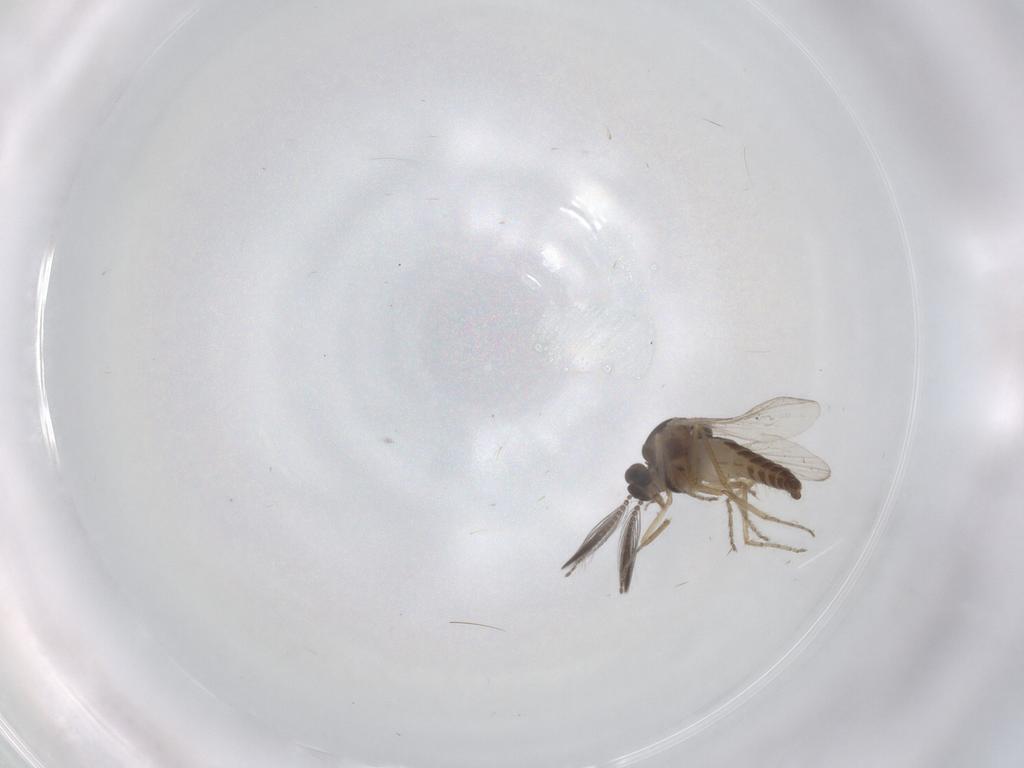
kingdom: Animalia
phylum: Arthropoda
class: Insecta
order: Diptera
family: Ceratopogonidae
